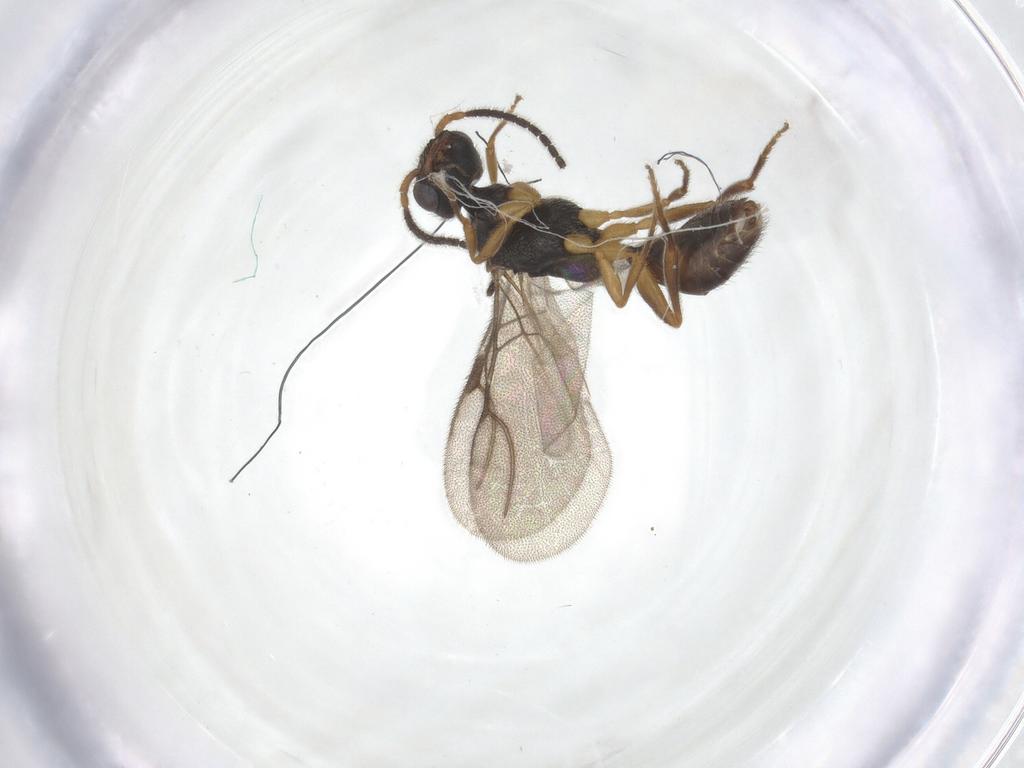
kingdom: Animalia
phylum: Arthropoda
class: Insecta
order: Hymenoptera
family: Bethylidae
